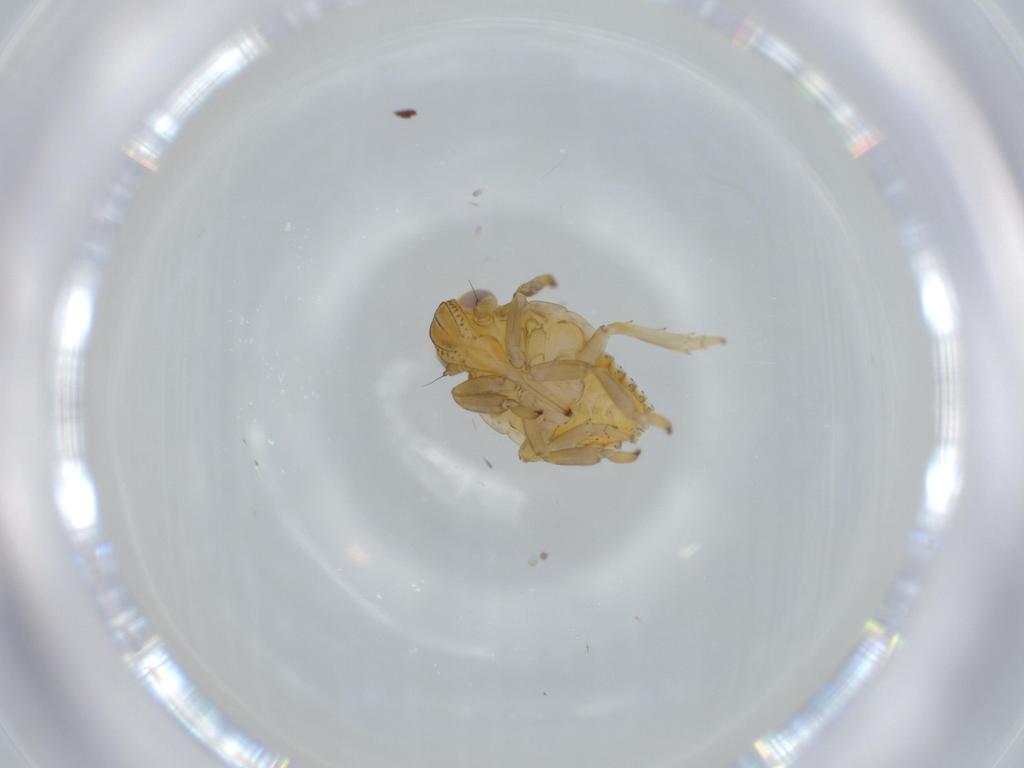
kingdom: Animalia
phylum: Arthropoda
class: Insecta
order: Hemiptera
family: Issidae
